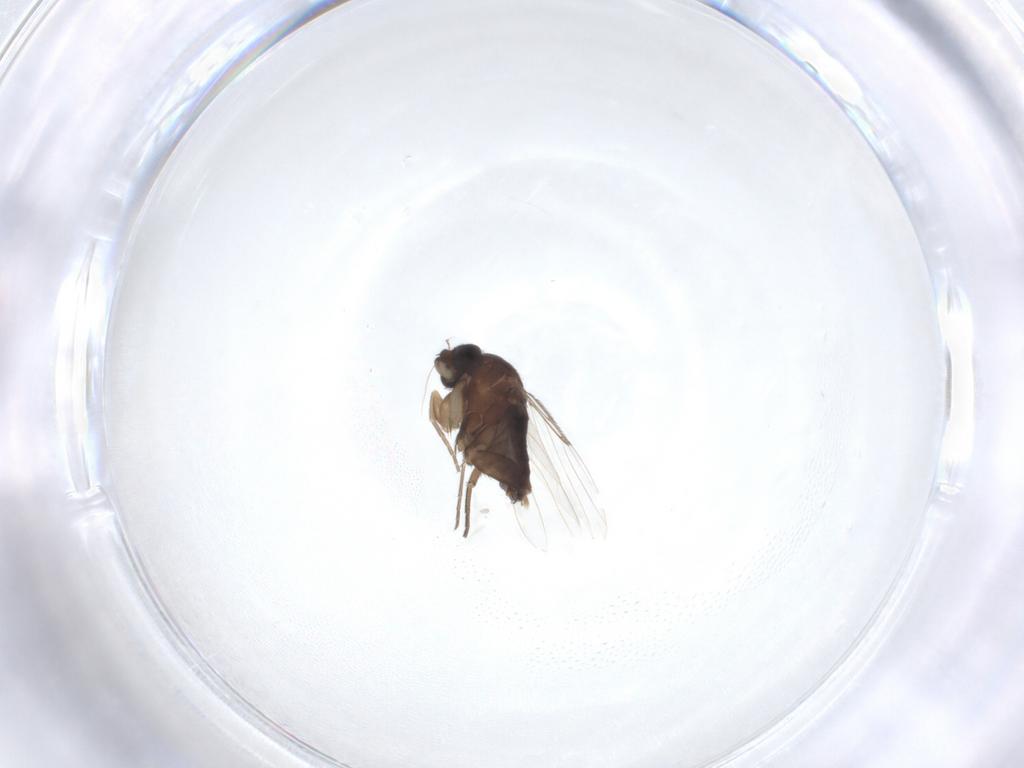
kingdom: Animalia
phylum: Arthropoda
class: Insecta
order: Diptera
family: Phoridae
